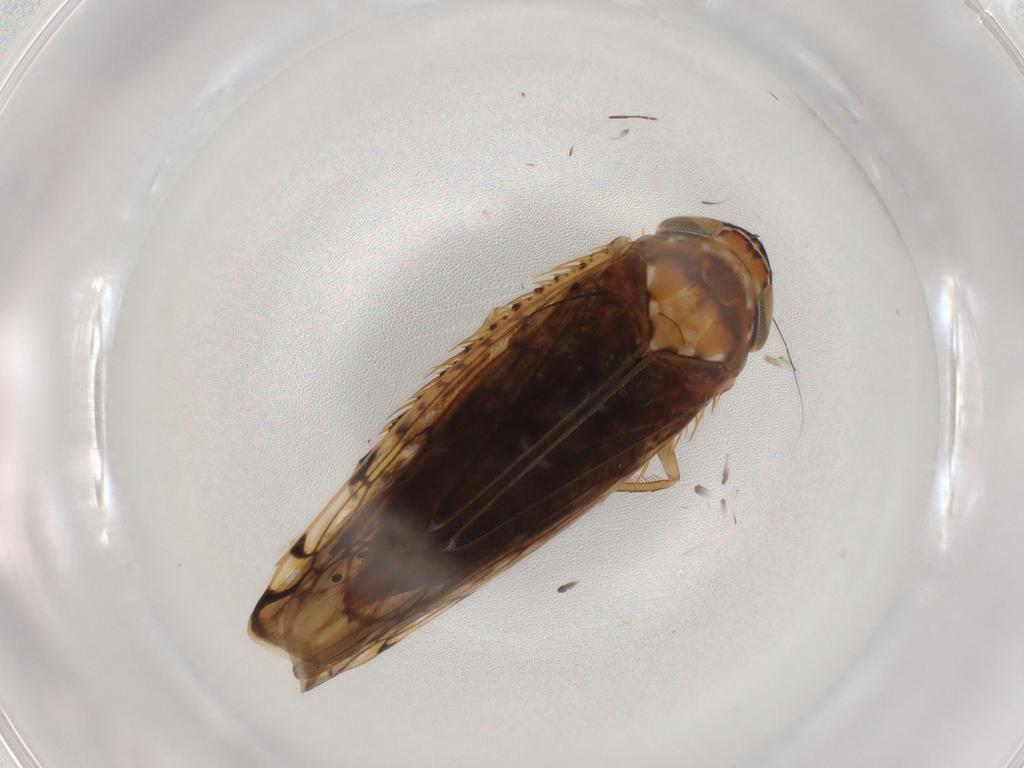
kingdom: Animalia
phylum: Arthropoda
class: Insecta
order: Hemiptera
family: Cicadellidae
